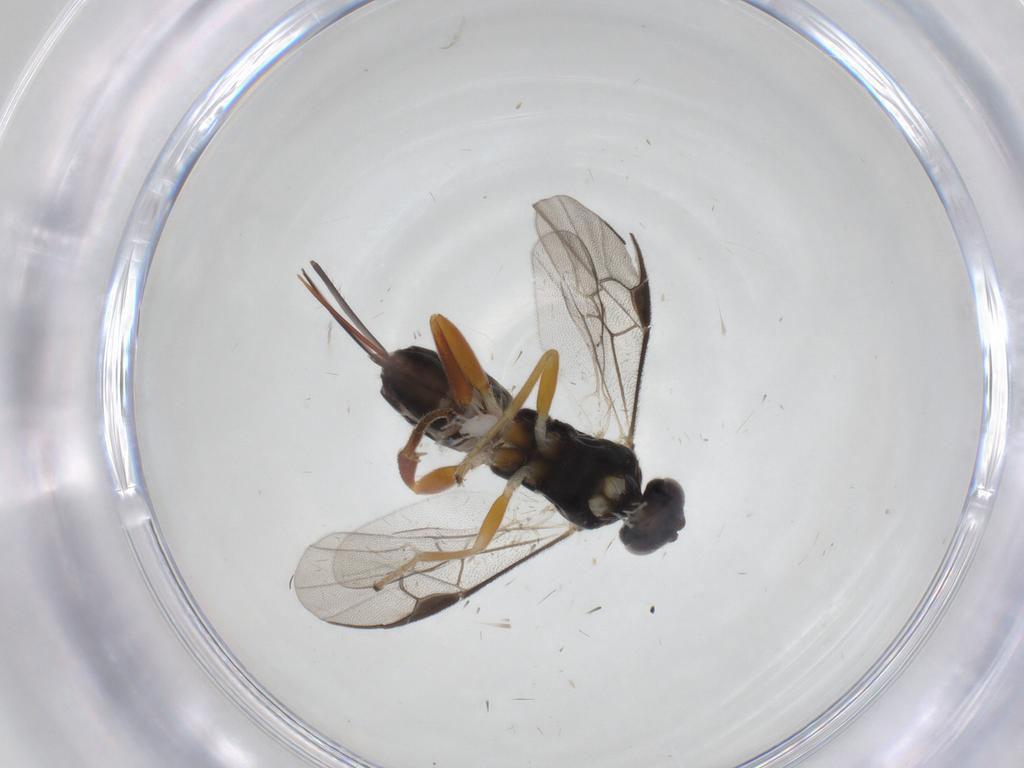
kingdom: Animalia
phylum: Arthropoda
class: Insecta
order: Hymenoptera
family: Braconidae
